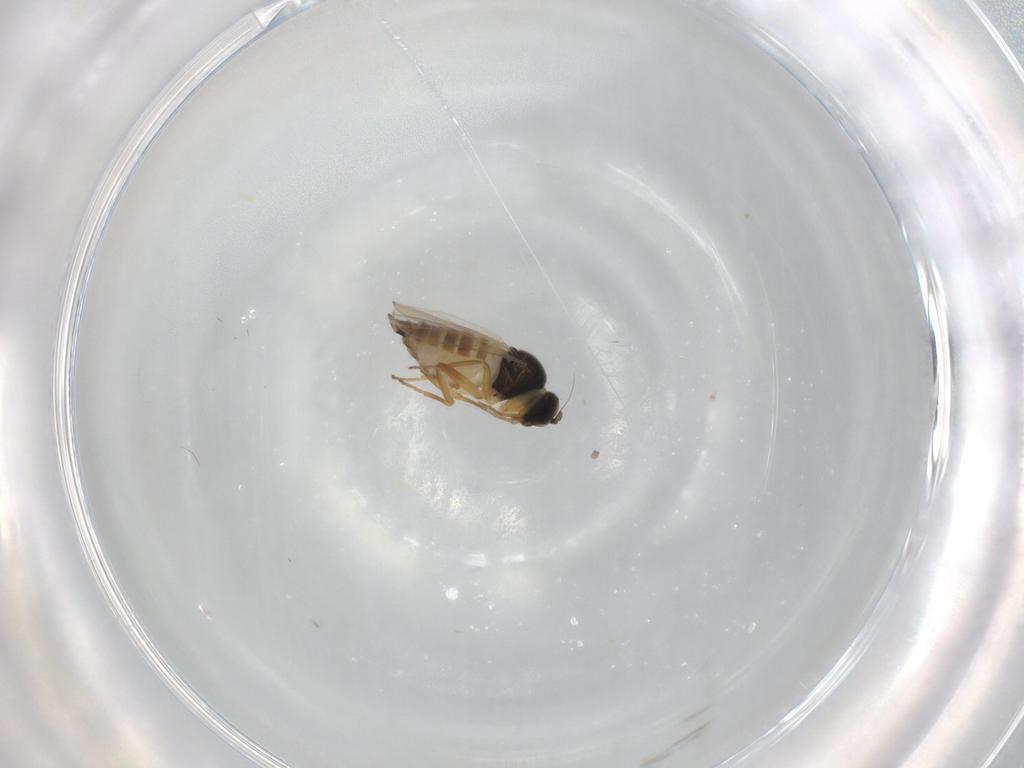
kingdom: Animalia
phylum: Arthropoda
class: Insecta
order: Diptera
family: Hybotidae
